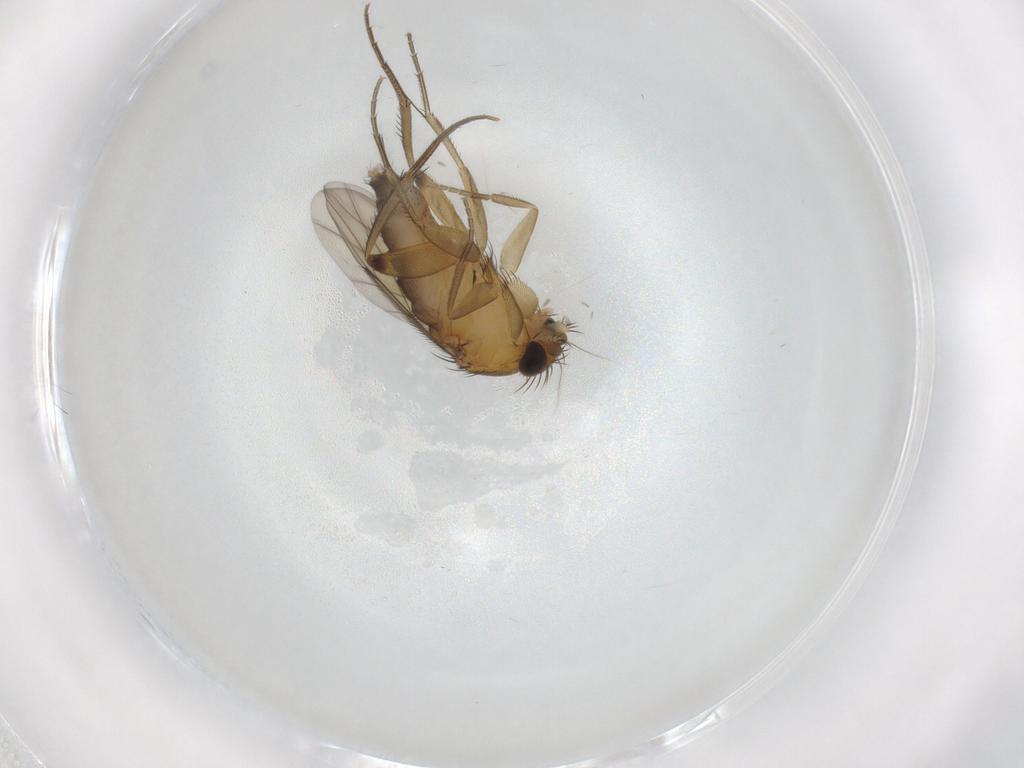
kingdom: Animalia
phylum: Arthropoda
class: Insecta
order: Diptera
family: Phoridae
